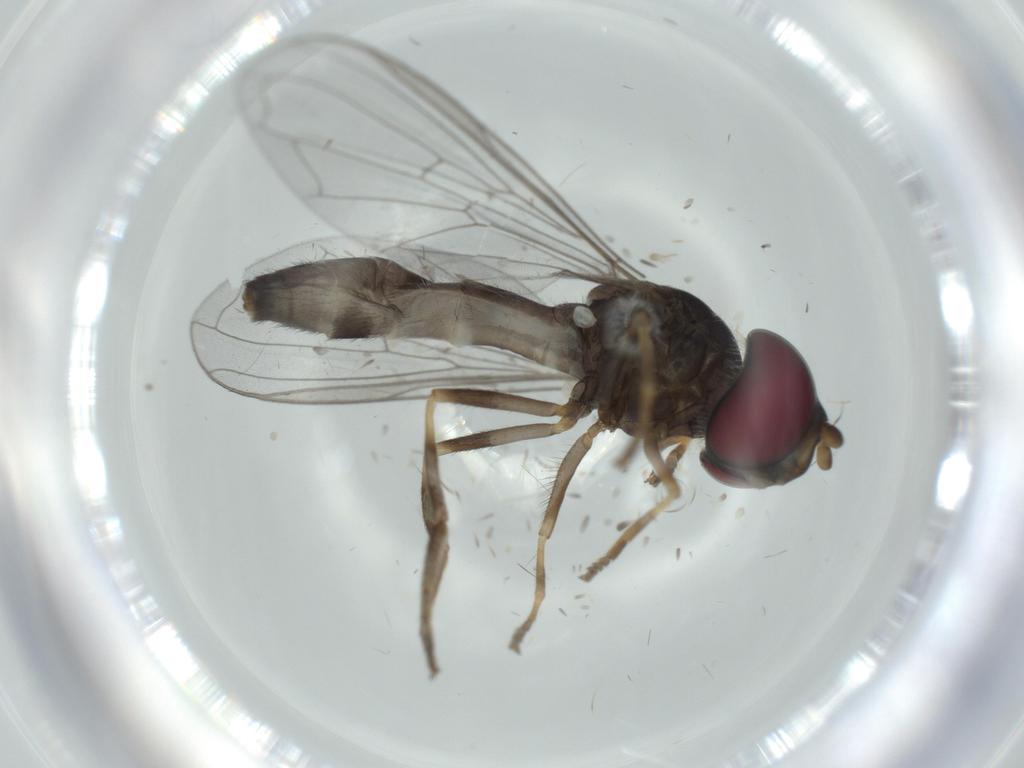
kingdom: Animalia
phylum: Arthropoda
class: Insecta
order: Diptera
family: Syrphidae
